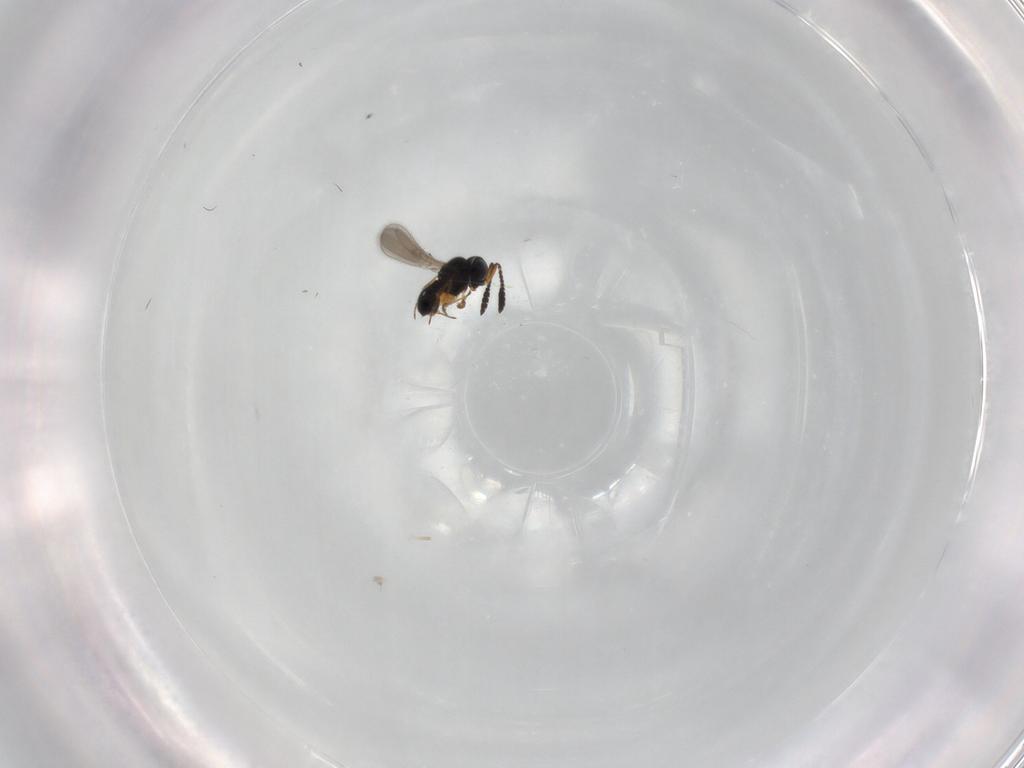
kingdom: Animalia
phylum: Arthropoda
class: Insecta
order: Hymenoptera
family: Scelionidae
